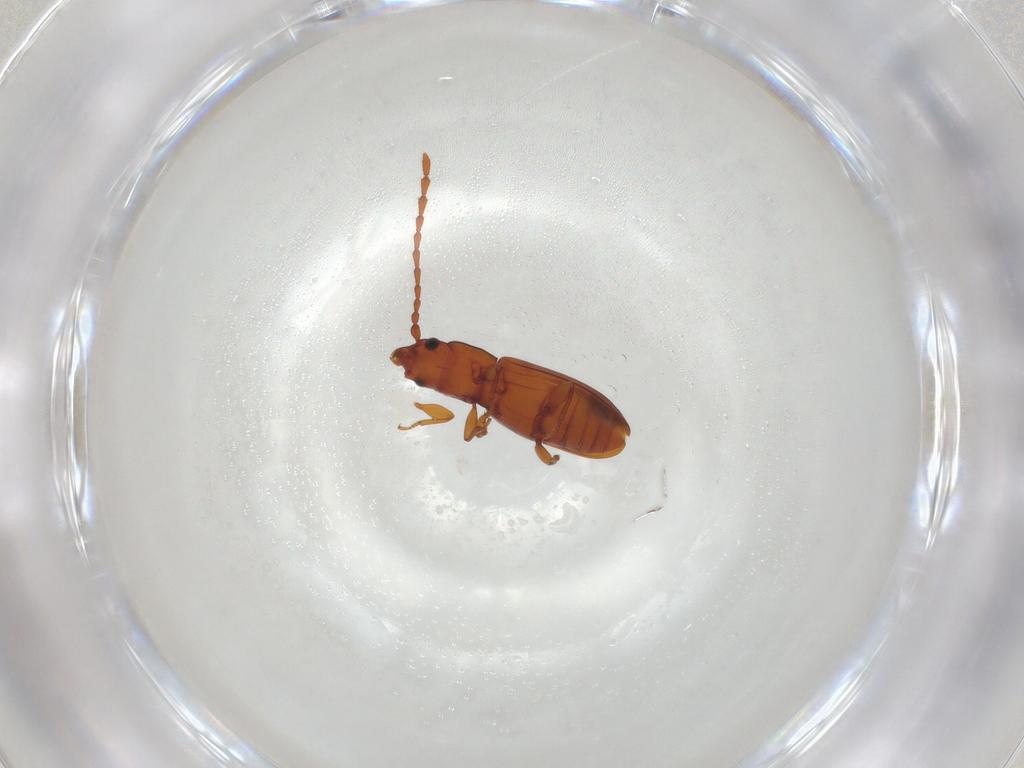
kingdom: Animalia
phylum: Arthropoda
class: Insecta
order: Coleoptera
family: Laemophloeidae
